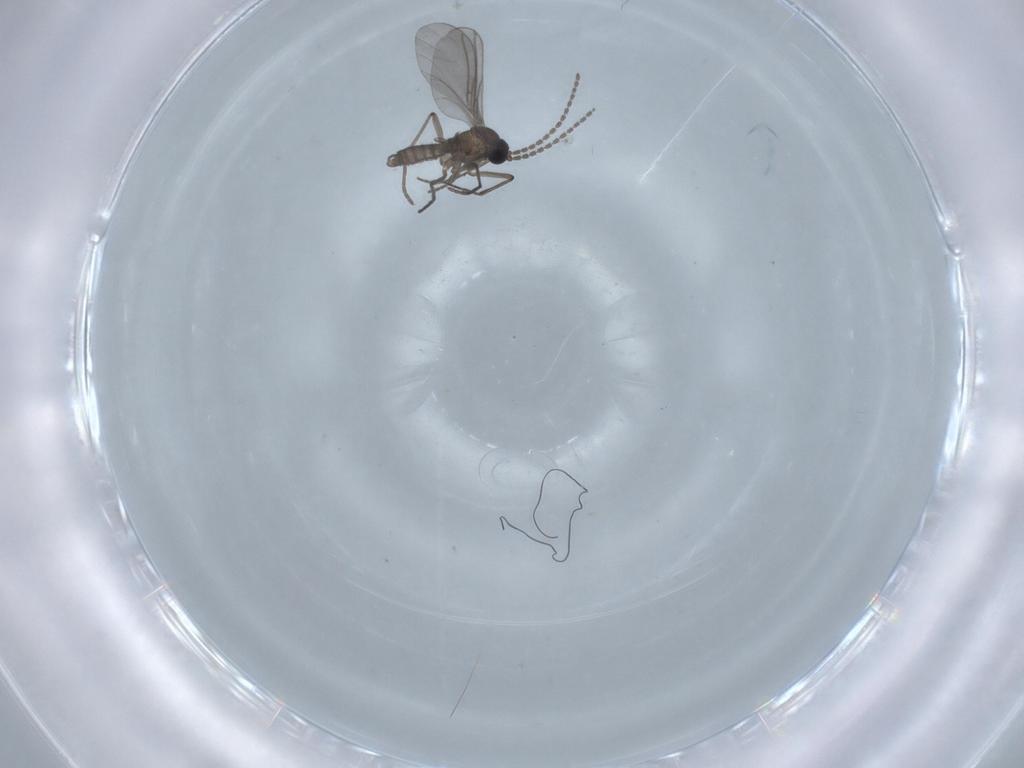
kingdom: Animalia
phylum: Arthropoda
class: Insecta
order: Diptera
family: Sciaridae
